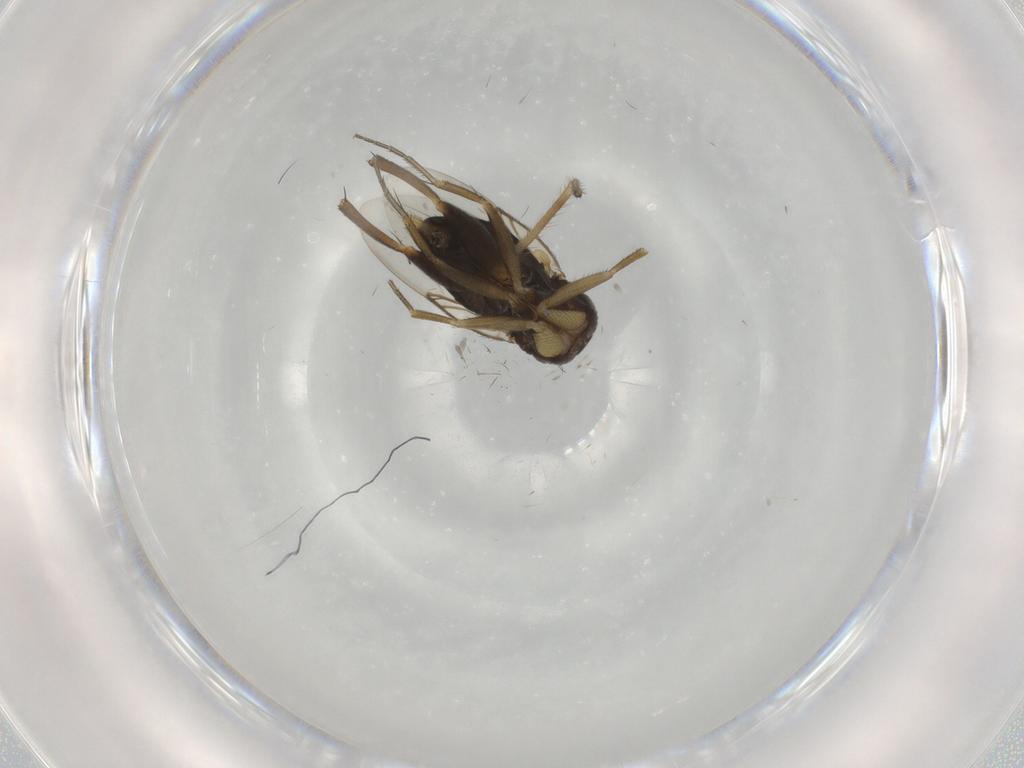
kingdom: Animalia
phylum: Arthropoda
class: Insecta
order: Diptera
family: Phoridae
